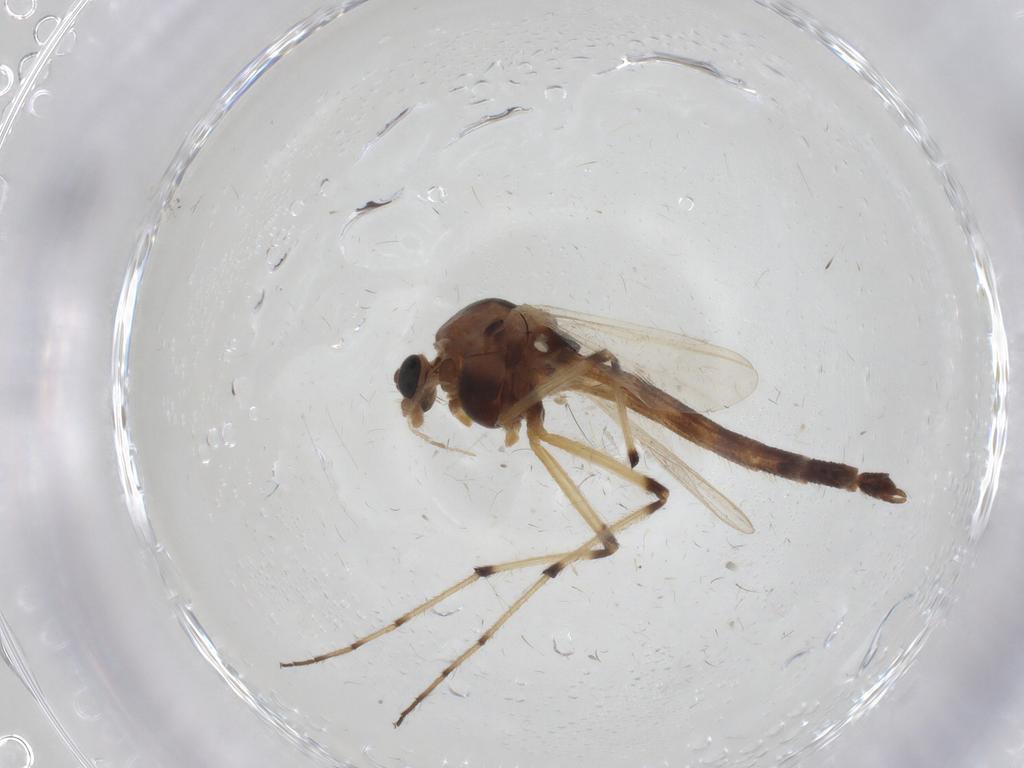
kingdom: Animalia
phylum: Arthropoda
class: Insecta
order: Diptera
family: Chironomidae
